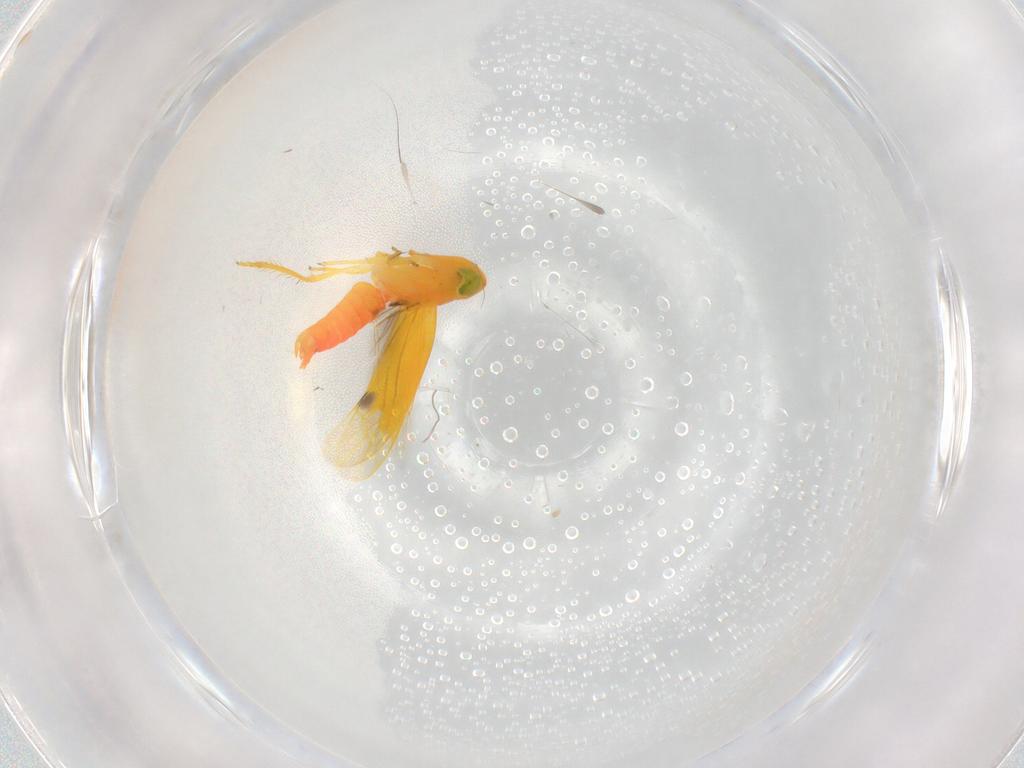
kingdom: Animalia
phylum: Arthropoda
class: Insecta
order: Hemiptera
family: Cicadellidae
